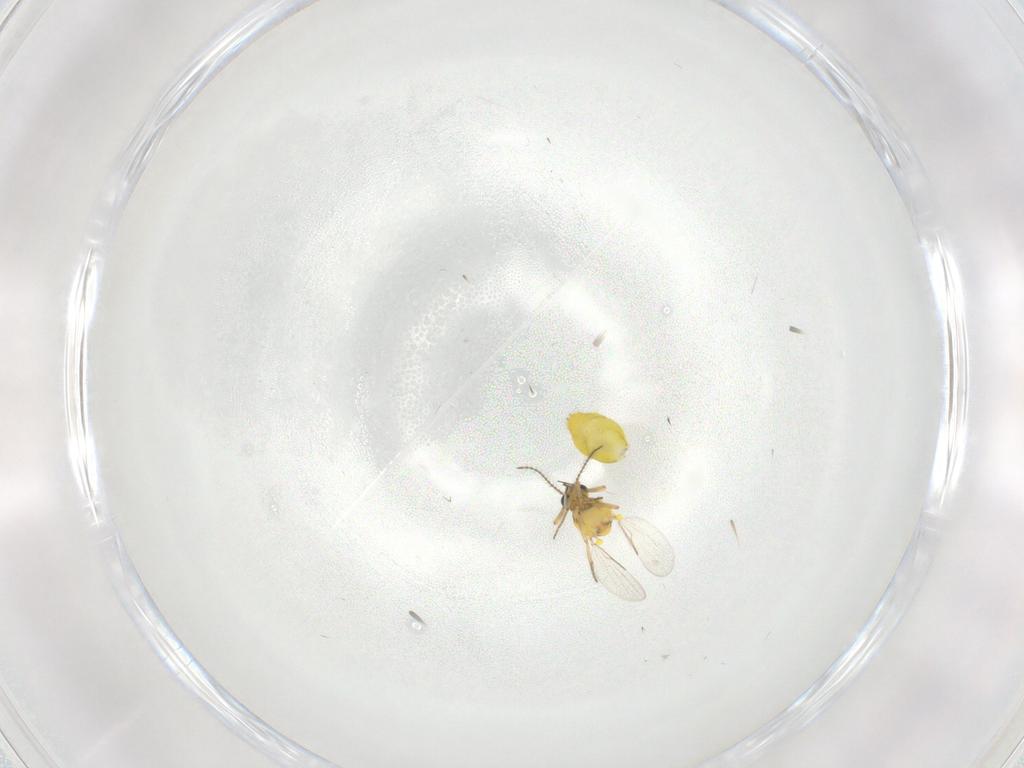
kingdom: Animalia
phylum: Arthropoda
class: Insecta
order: Diptera
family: Ceratopogonidae
